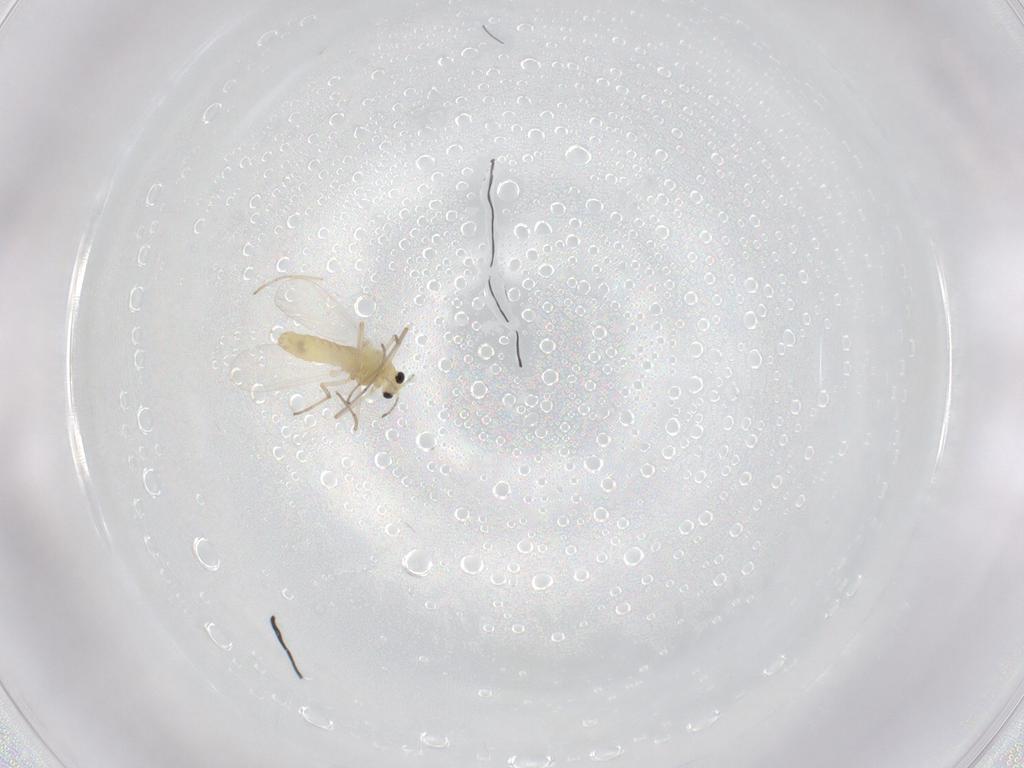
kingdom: Animalia
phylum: Arthropoda
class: Insecta
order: Diptera
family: Chironomidae
